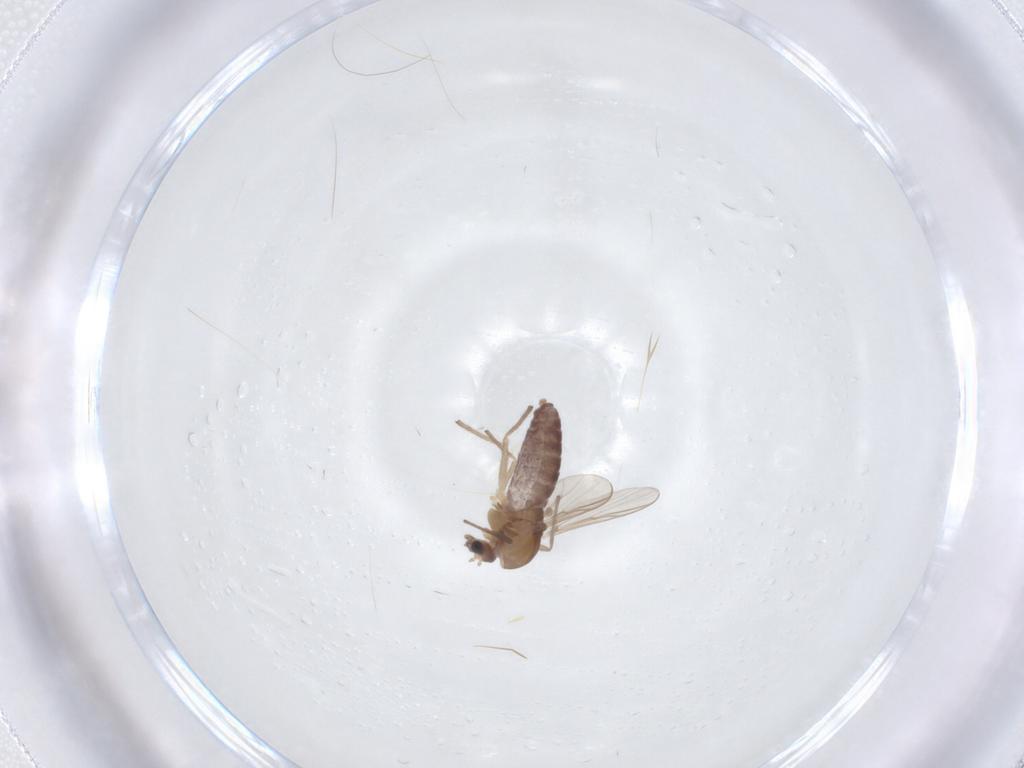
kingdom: Animalia
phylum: Arthropoda
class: Insecta
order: Diptera
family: Chironomidae
